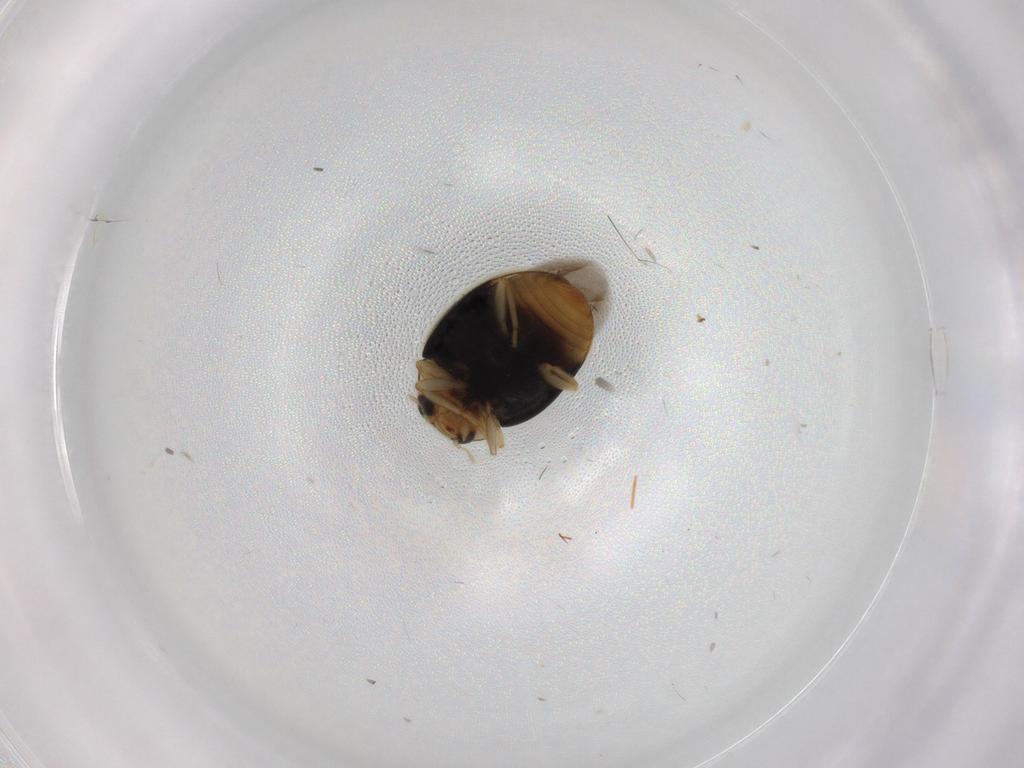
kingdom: Animalia
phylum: Arthropoda
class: Insecta
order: Coleoptera
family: Coccinellidae
